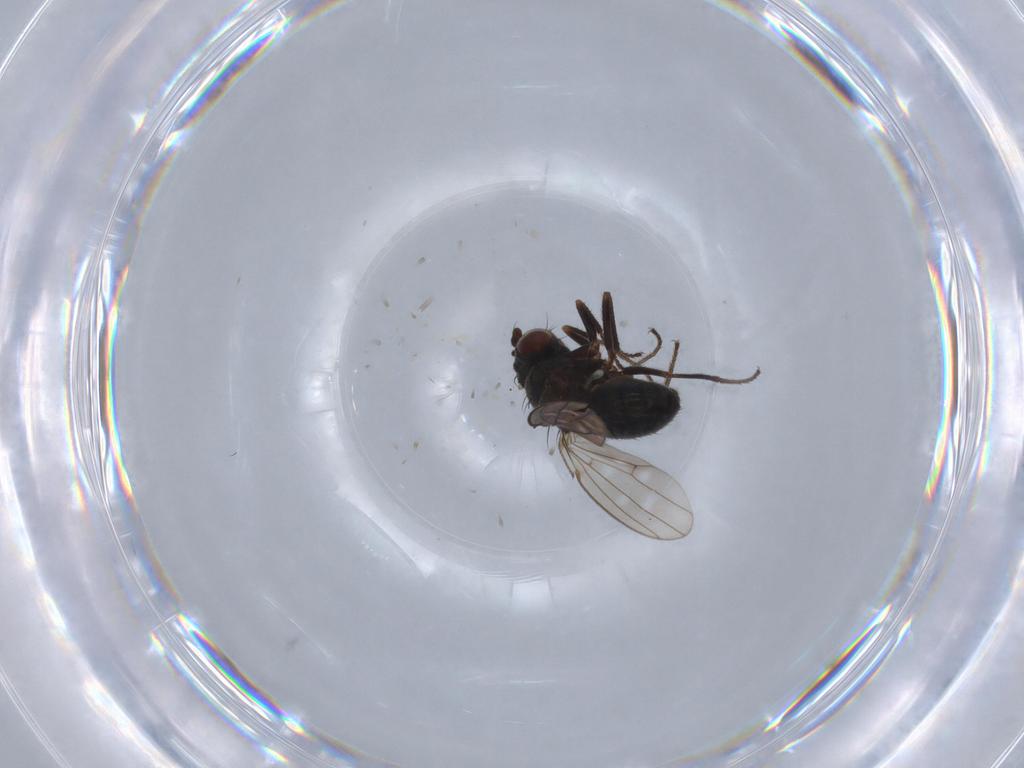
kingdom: Animalia
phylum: Arthropoda
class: Insecta
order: Diptera
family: Ephydridae
